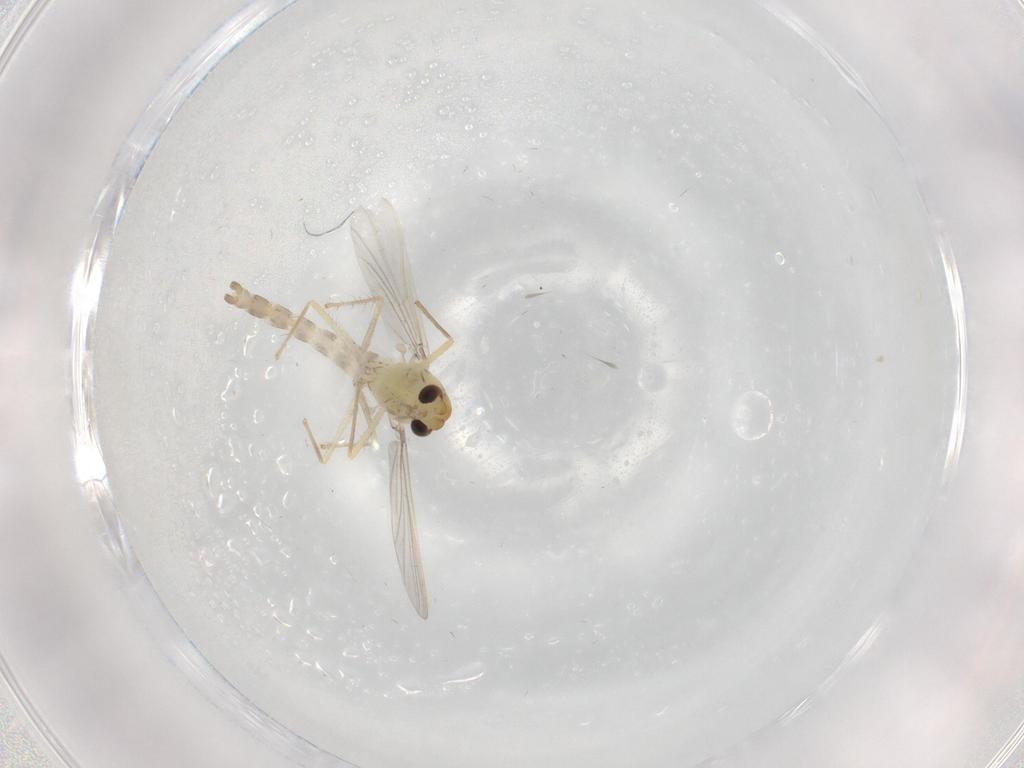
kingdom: Animalia
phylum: Arthropoda
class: Insecta
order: Diptera
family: Chironomidae
